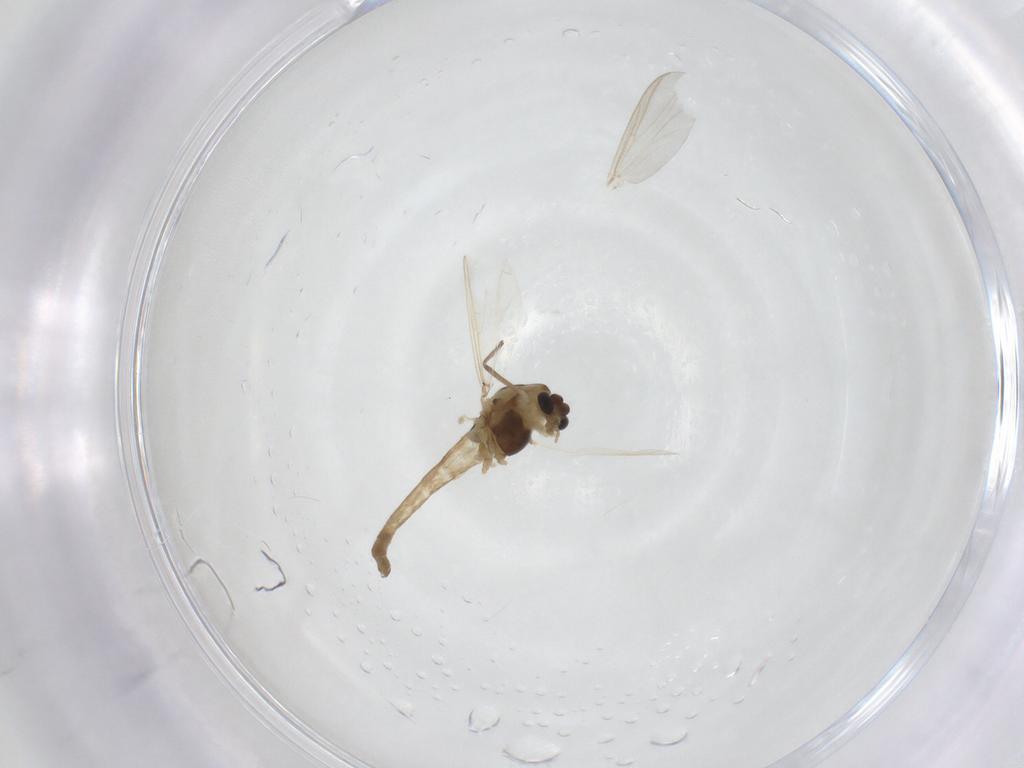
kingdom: Animalia
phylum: Arthropoda
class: Insecta
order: Diptera
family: Chironomidae
